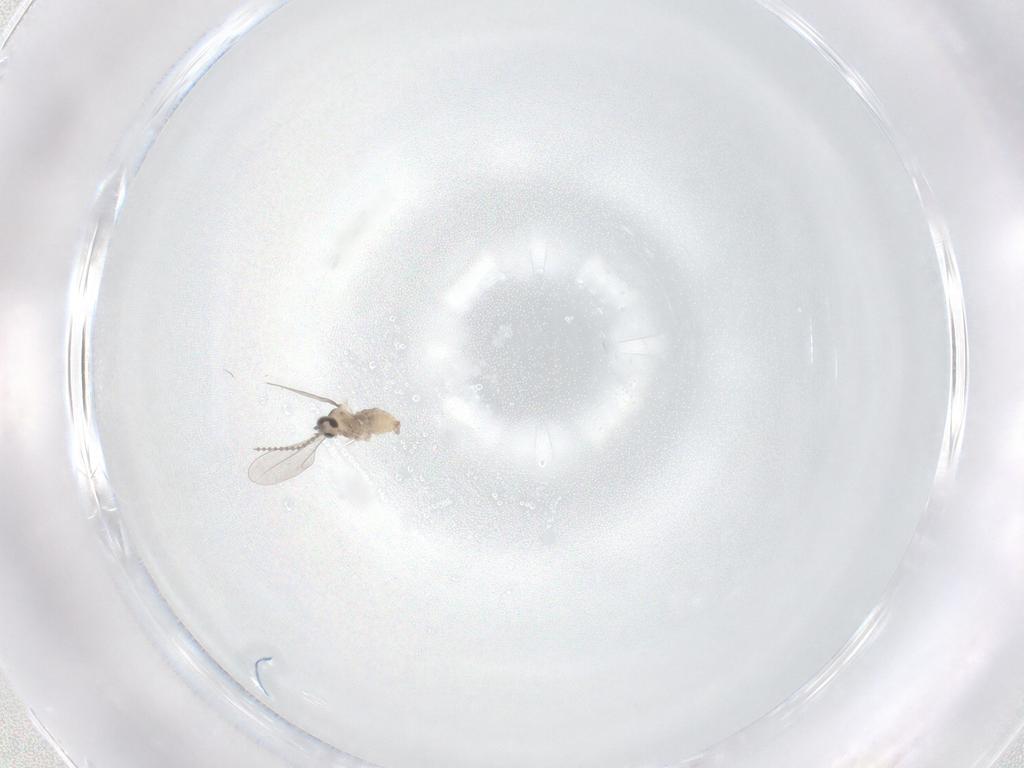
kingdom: Animalia
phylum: Arthropoda
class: Insecta
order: Diptera
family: Cecidomyiidae
